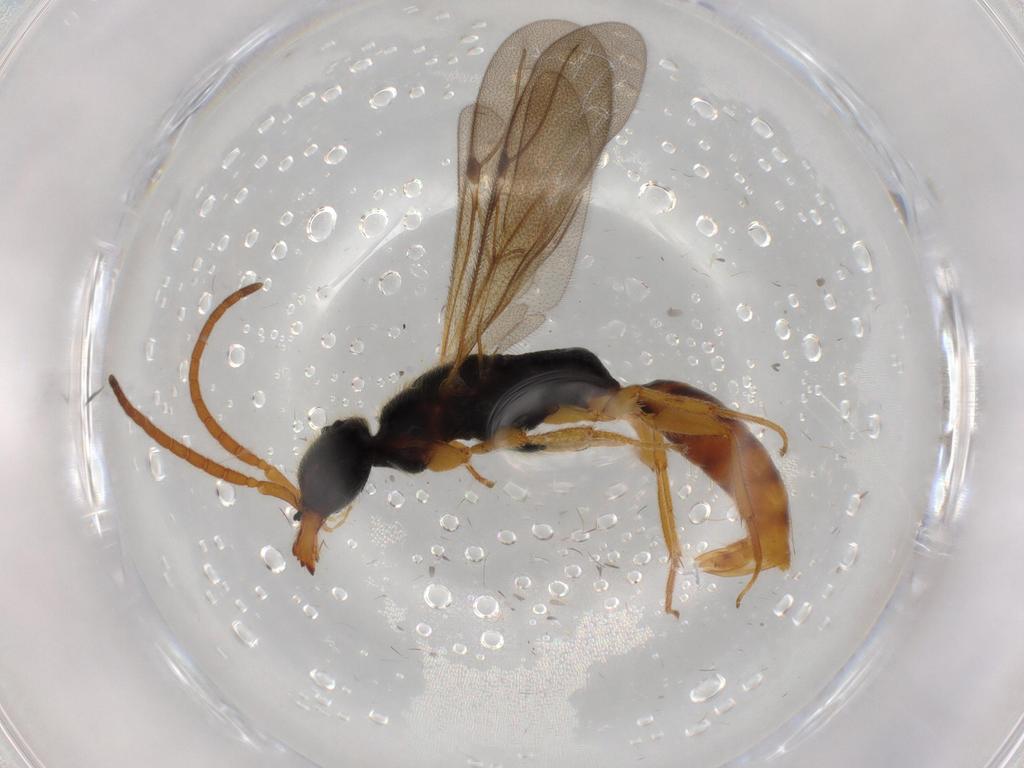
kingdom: Animalia
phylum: Arthropoda
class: Insecta
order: Hymenoptera
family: Bethylidae
